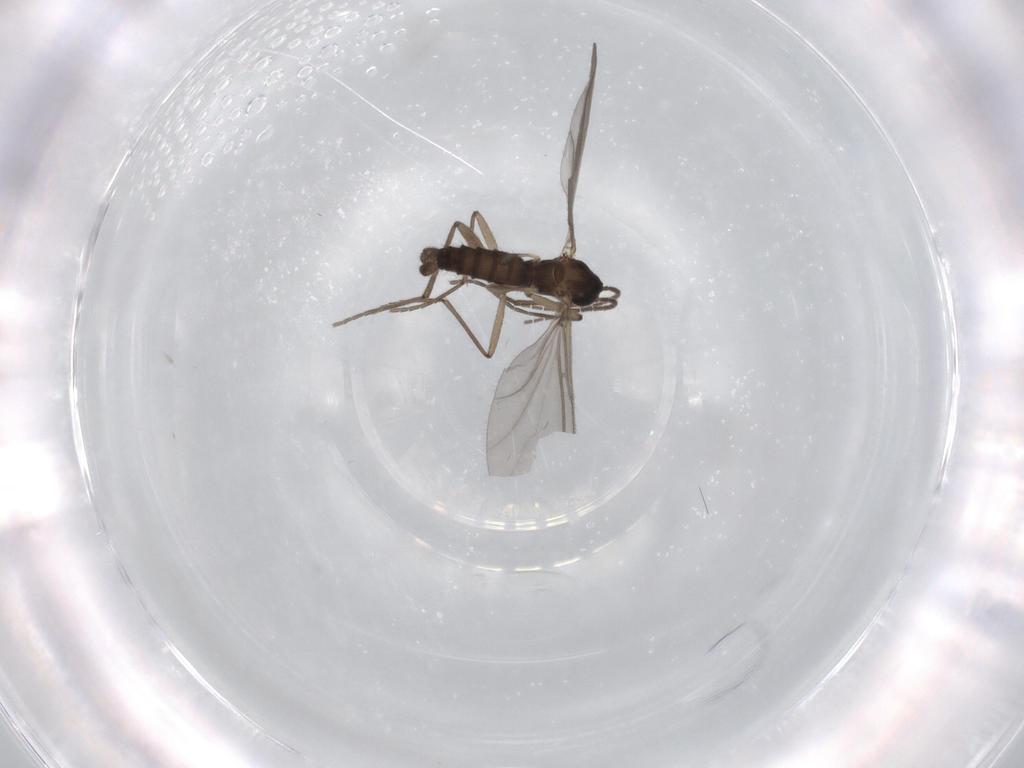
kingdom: Animalia
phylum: Arthropoda
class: Insecta
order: Diptera
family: Sciaridae
